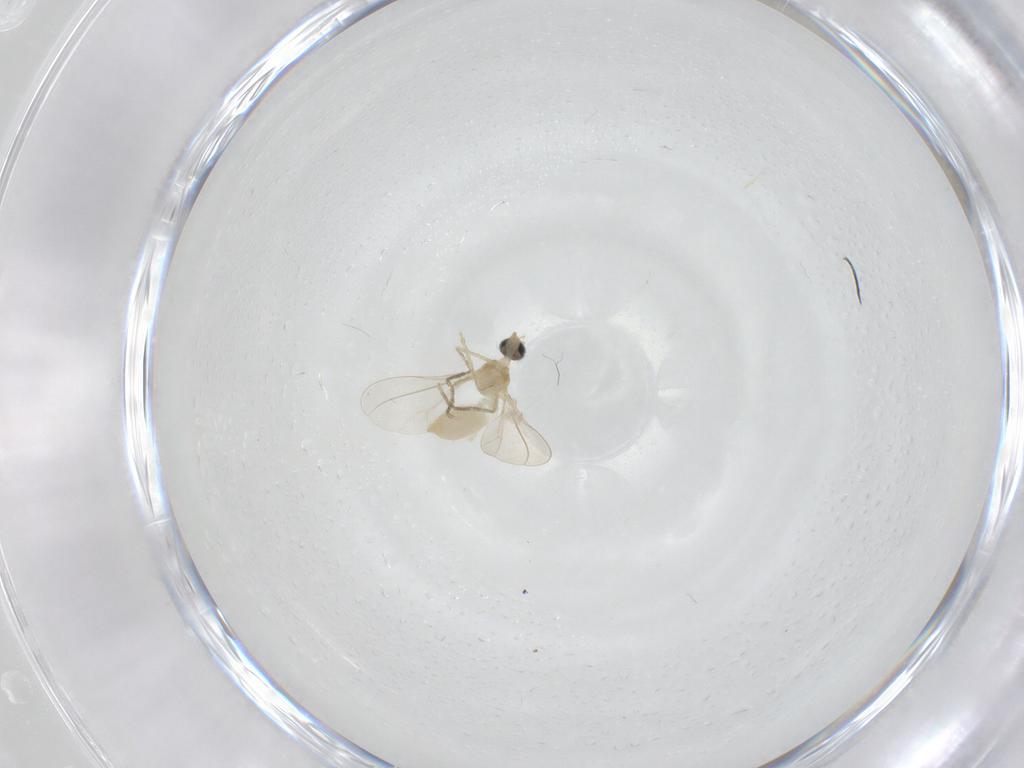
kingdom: Animalia
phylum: Arthropoda
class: Insecta
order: Diptera
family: Cecidomyiidae
